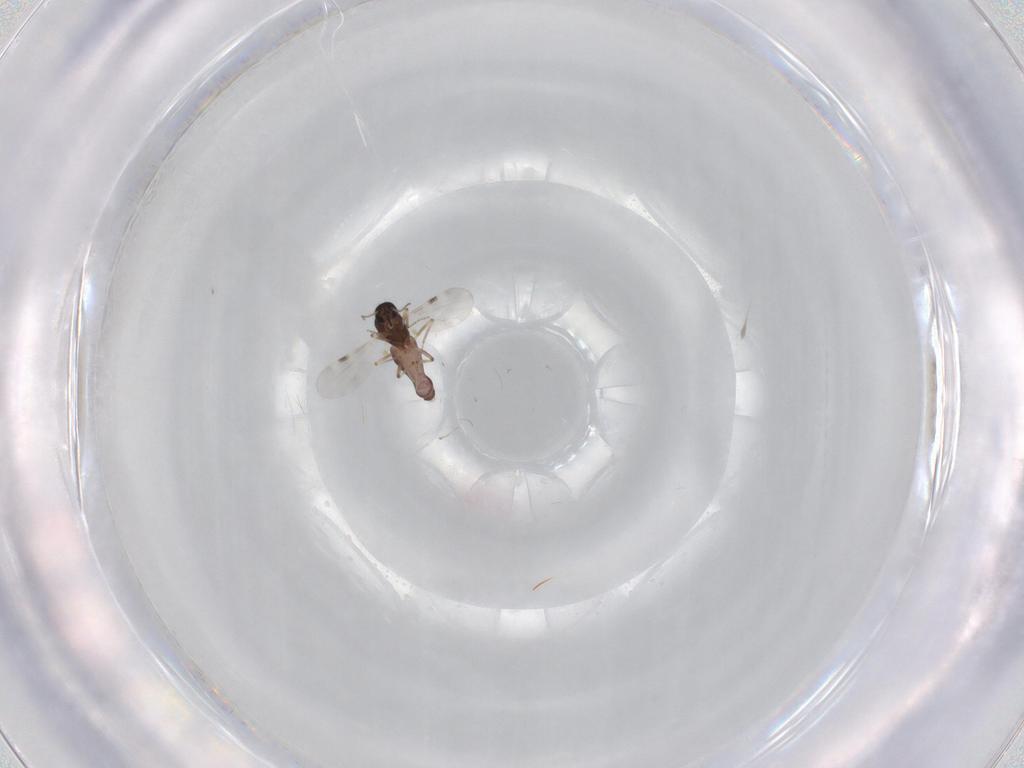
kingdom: Animalia
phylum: Arthropoda
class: Insecta
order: Diptera
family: Cecidomyiidae
